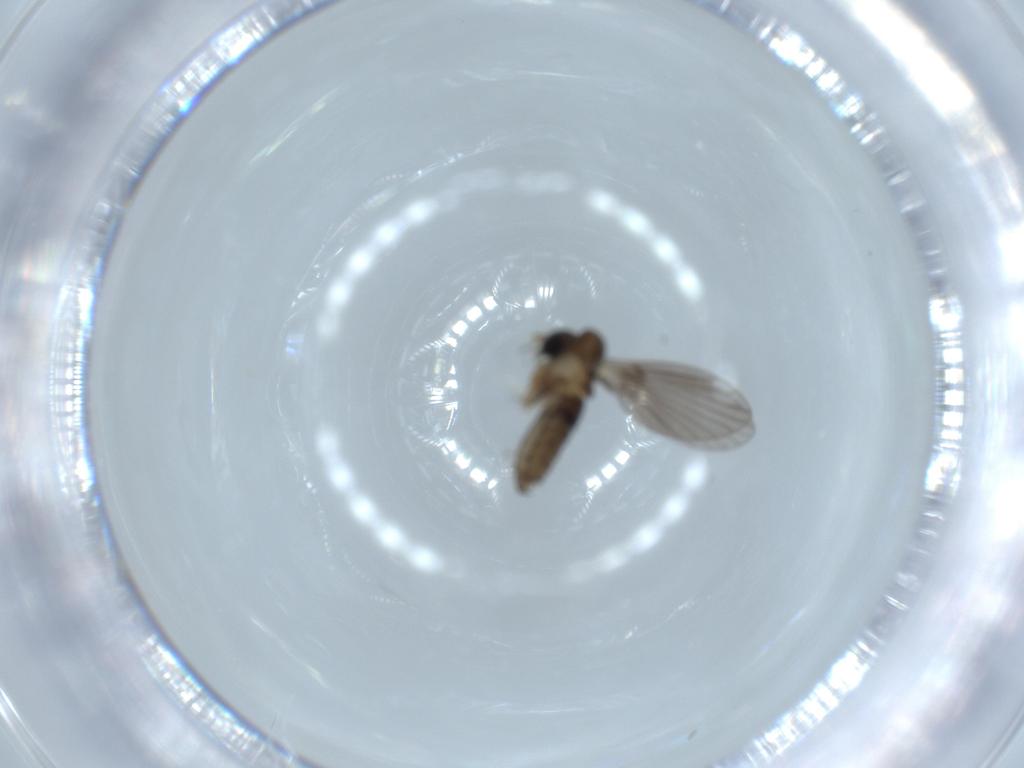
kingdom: Animalia
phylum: Arthropoda
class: Insecta
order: Diptera
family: Psychodidae
